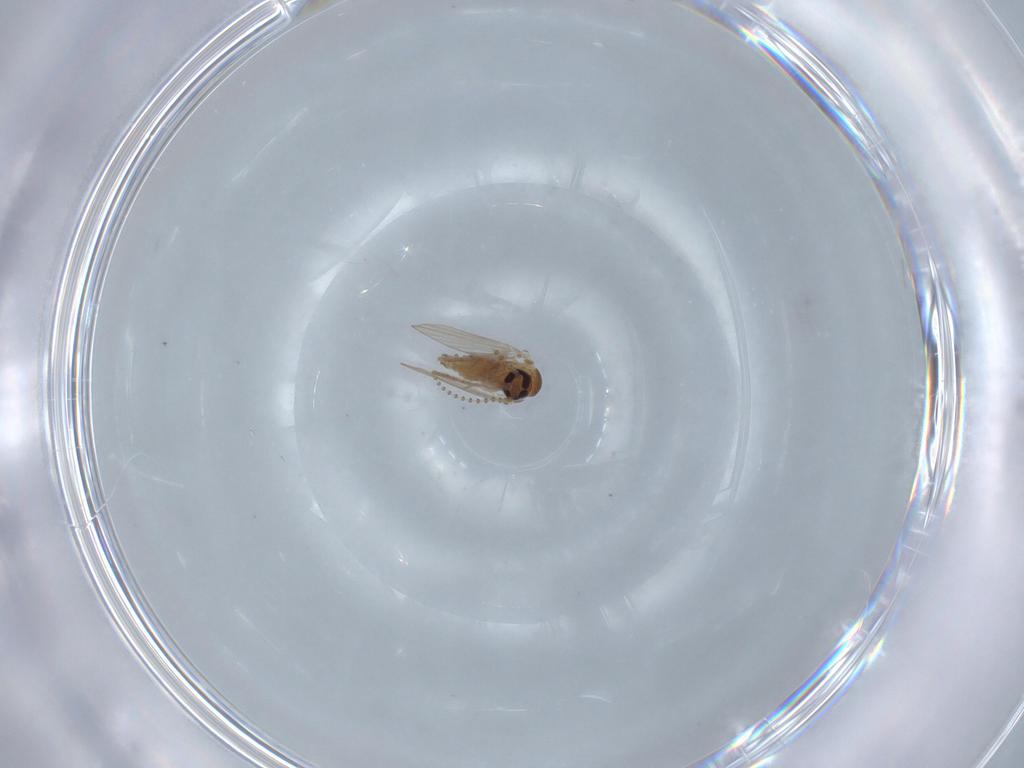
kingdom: Animalia
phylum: Arthropoda
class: Insecta
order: Diptera
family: Psychodidae
